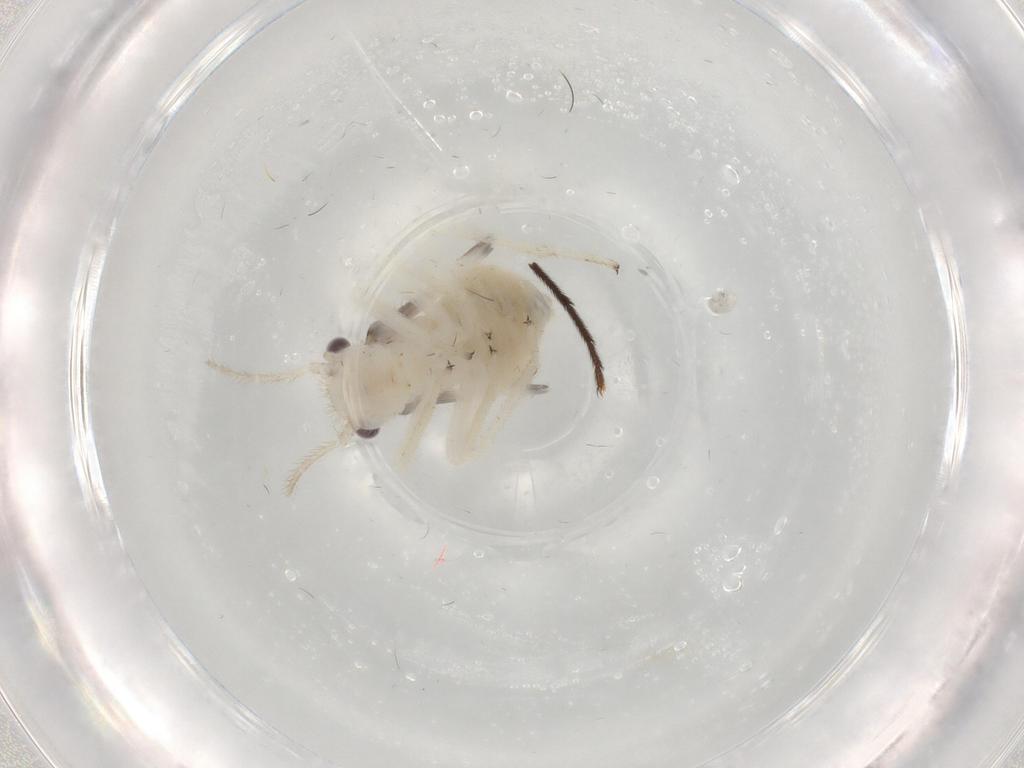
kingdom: Animalia
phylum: Arthropoda
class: Insecta
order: Psocodea
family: Amphipsocidae
